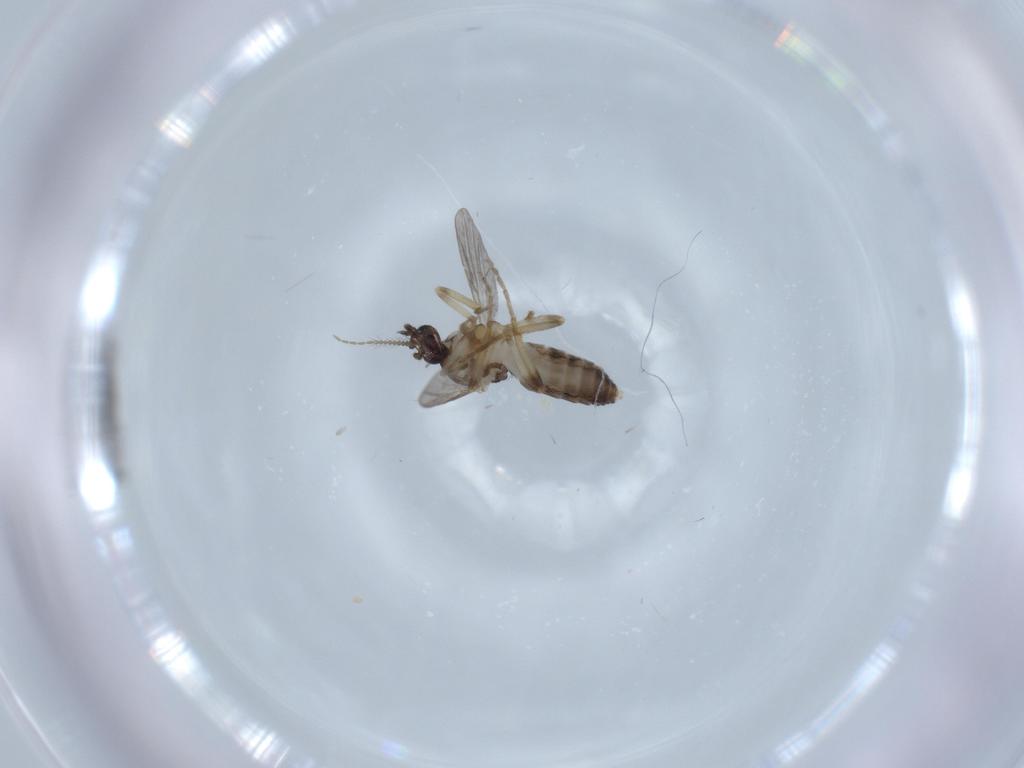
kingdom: Animalia
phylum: Arthropoda
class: Insecta
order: Diptera
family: Ceratopogonidae
